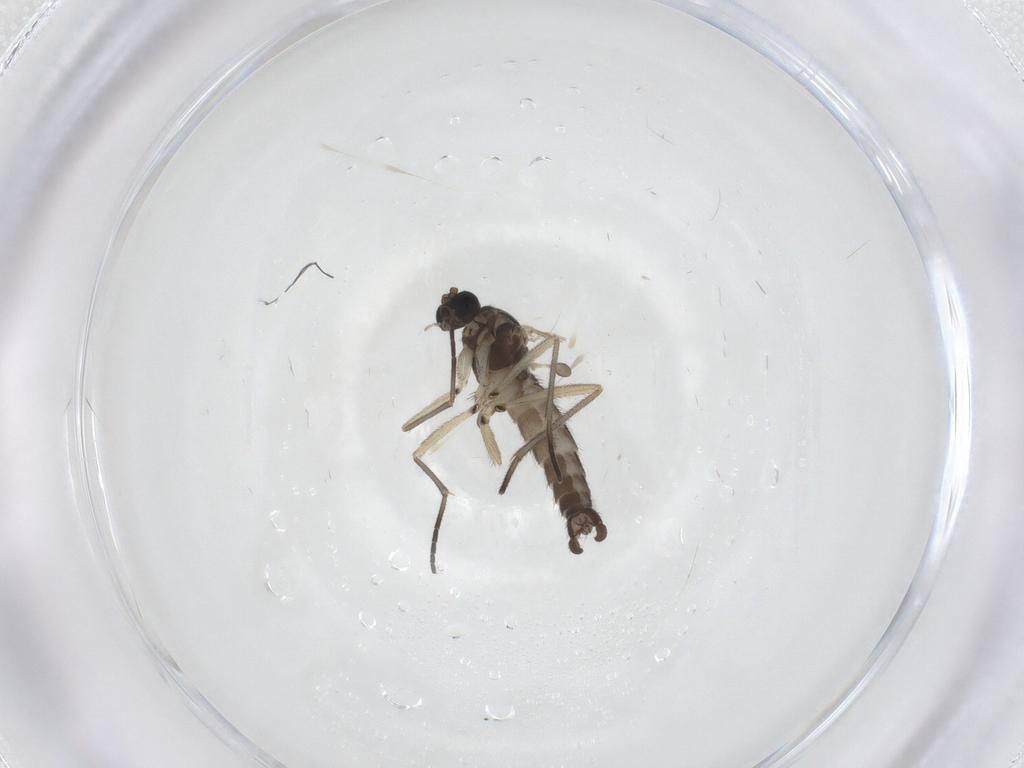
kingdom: Animalia
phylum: Arthropoda
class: Insecta
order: Diptera
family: Sciaridae
